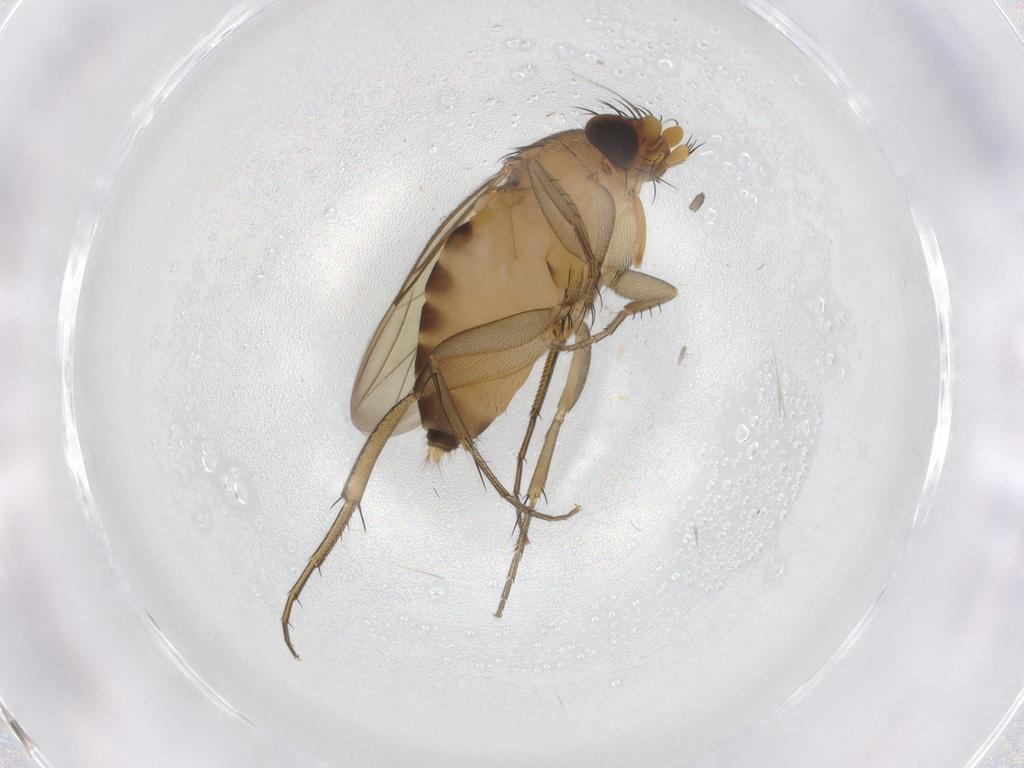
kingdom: Animalia
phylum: Arthropoda
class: Insecta
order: Diptera
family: Phoridae
